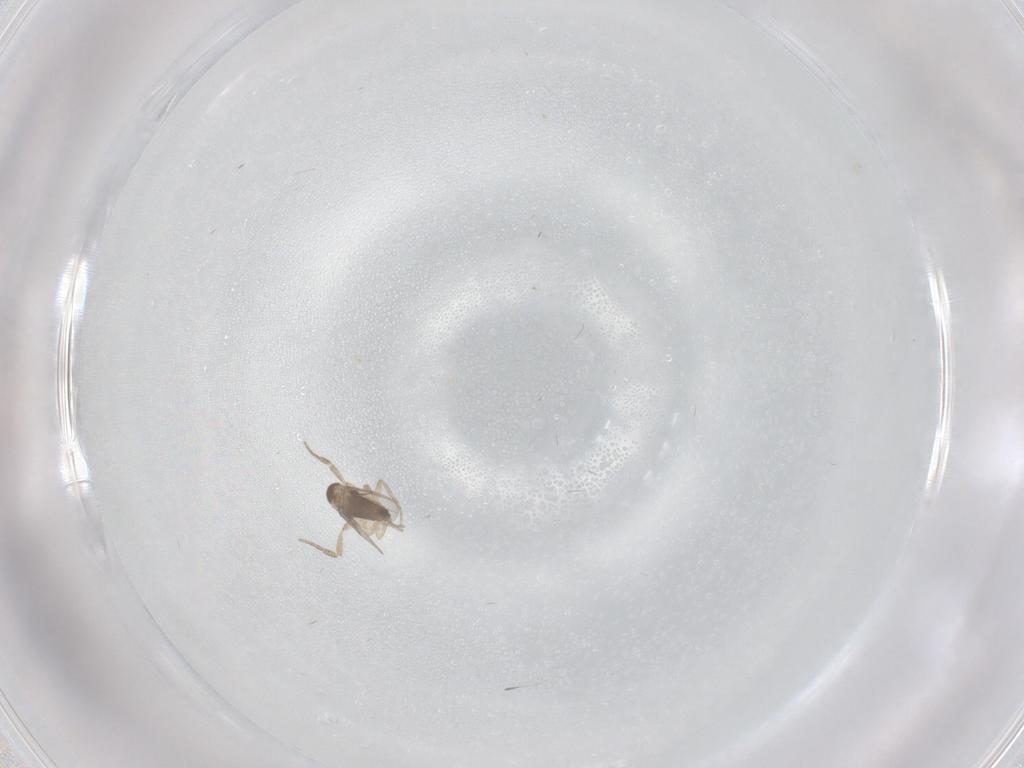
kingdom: Animalia
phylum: Arthropoda
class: Insecta
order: Diptera
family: Phoridae
